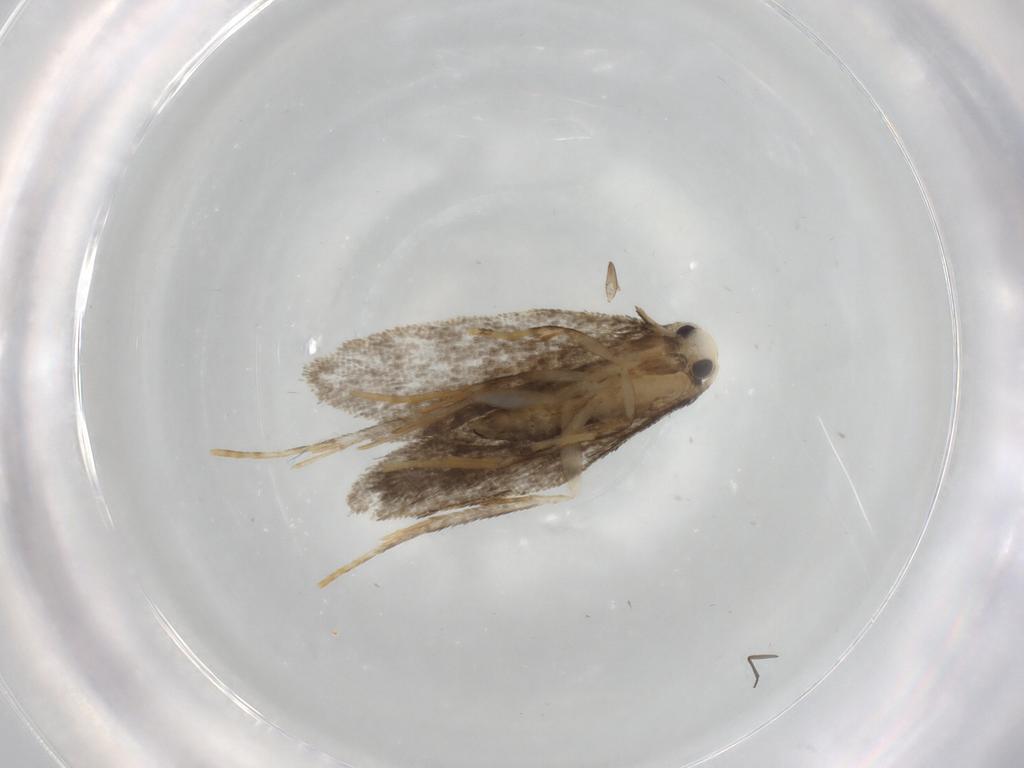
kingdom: Animalia
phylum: Arthropoda
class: Insecta
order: Lepidoptera
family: Psychidae
